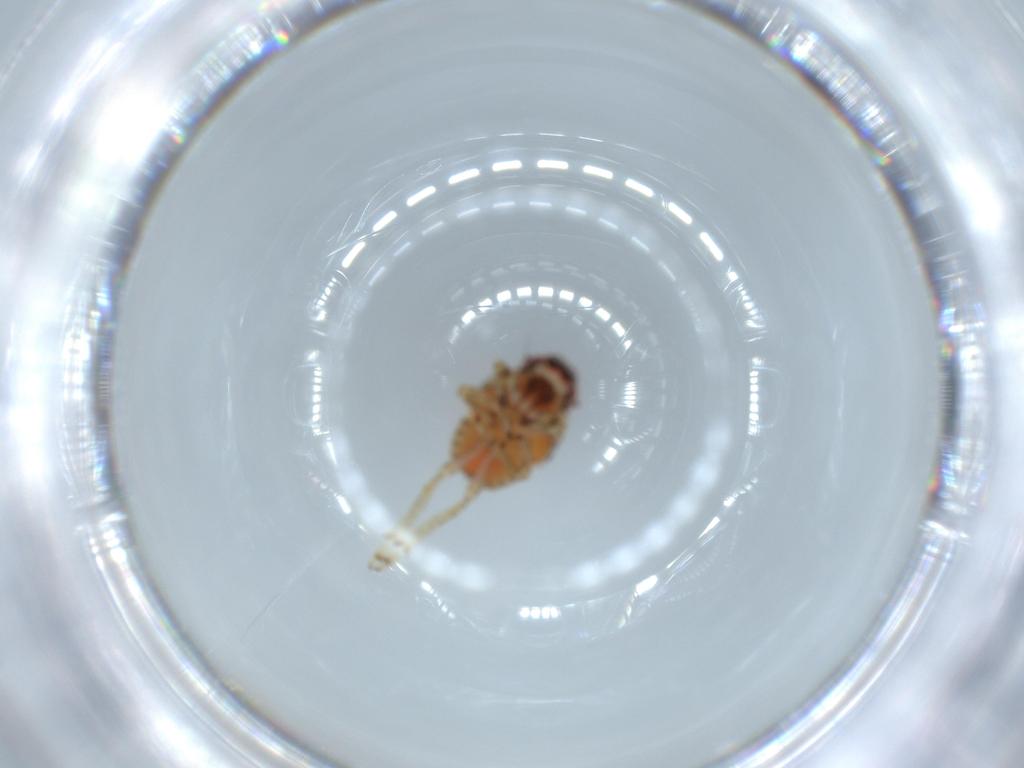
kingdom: Animalia
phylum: Arthropoda
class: Insecta
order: Hemiptera
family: Issidae
